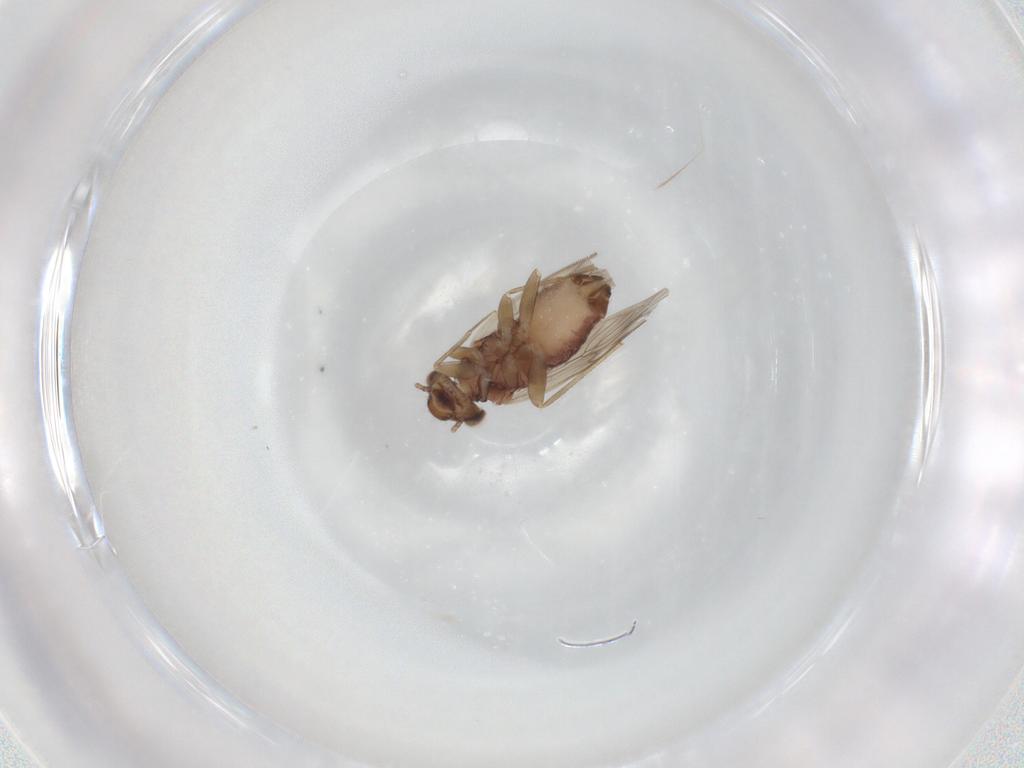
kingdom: Animalia
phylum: Arthropoda
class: Insecta
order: Psocodea
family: Lepidopsocidae
